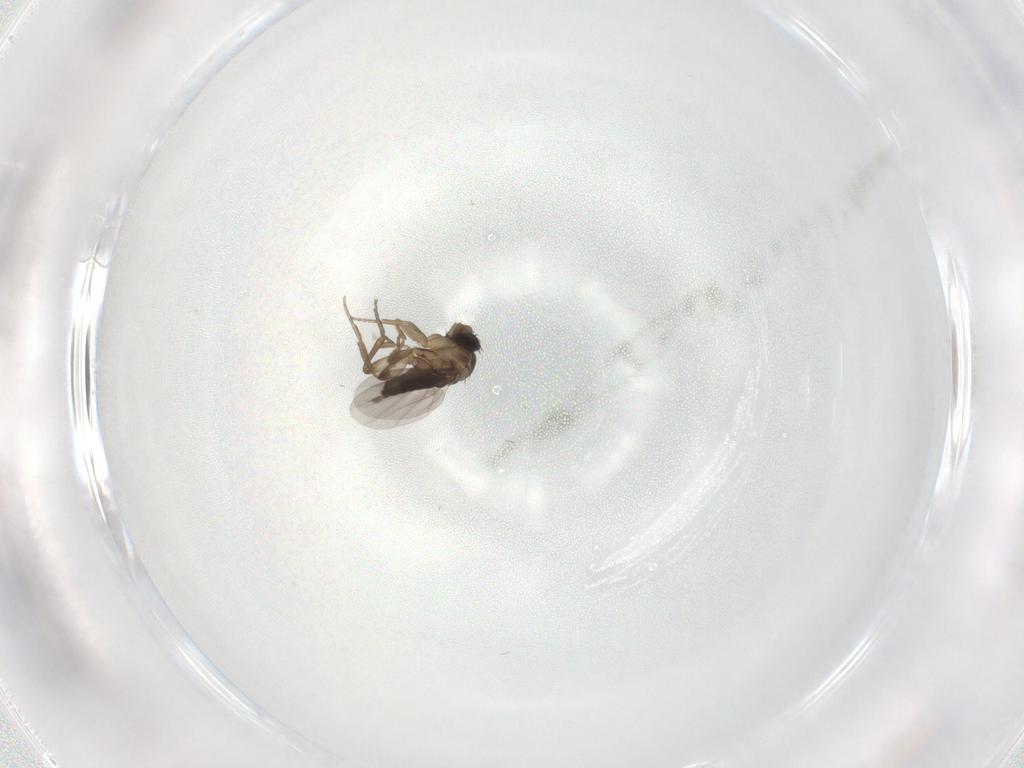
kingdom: Animalia
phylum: Arthropoda
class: Insecta
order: Diptera
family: Phoridae
